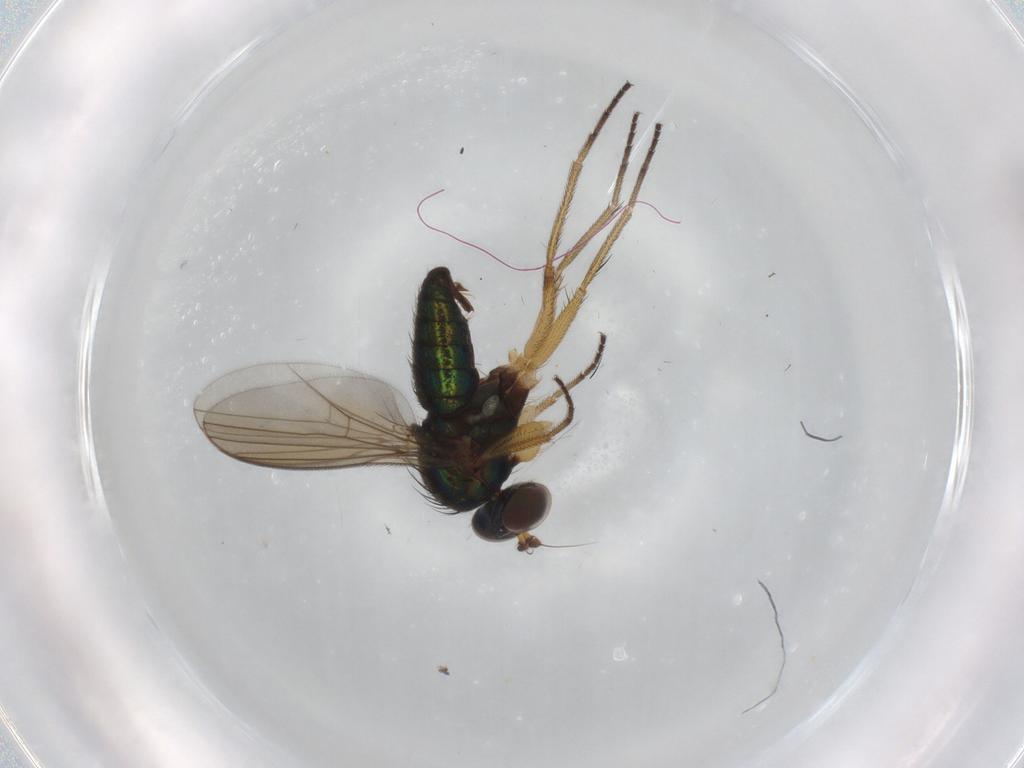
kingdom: Animalia
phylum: Arthropoda
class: Insecta
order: Diptera
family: Dolichopodidae
